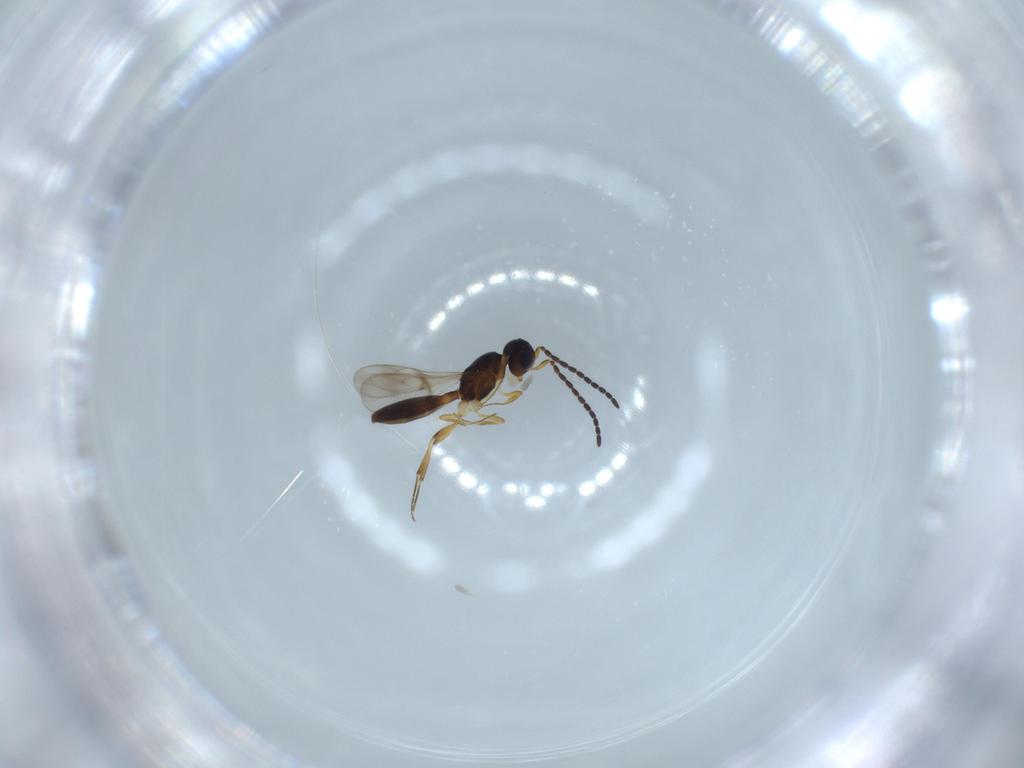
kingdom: Animalia
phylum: Arthropoda
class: Insecta
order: Hymenoptera
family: Scelionidae
